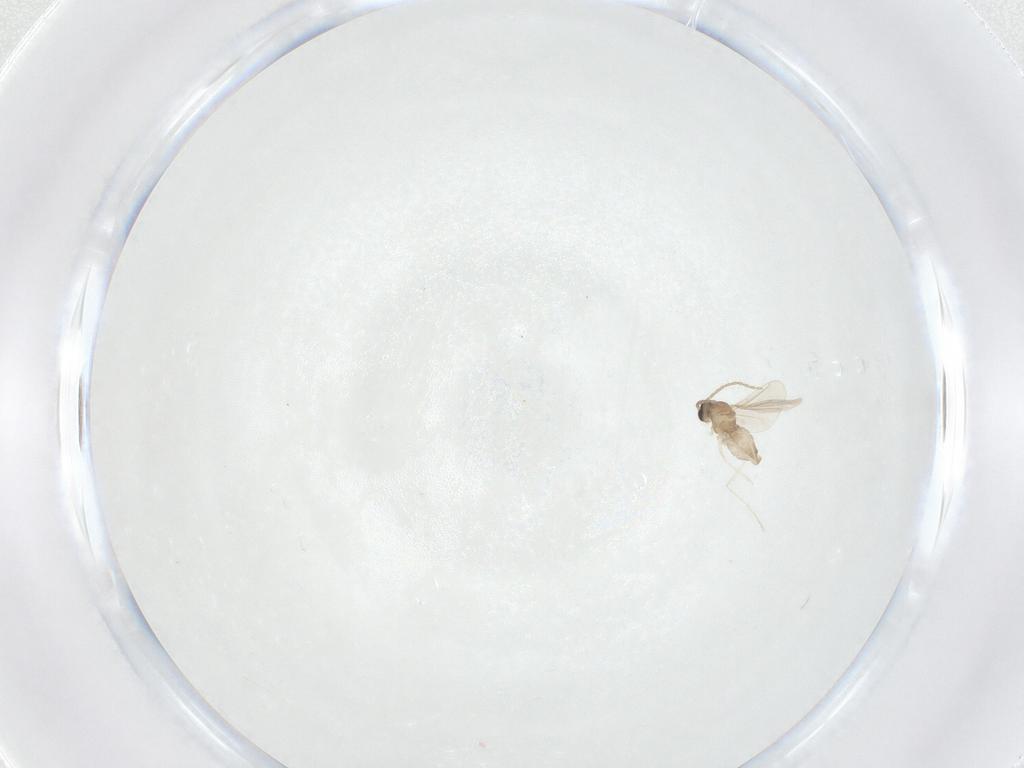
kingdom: Animalia
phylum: Arthropoda
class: Insecta
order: Diptera
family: Cecidomyiidae
